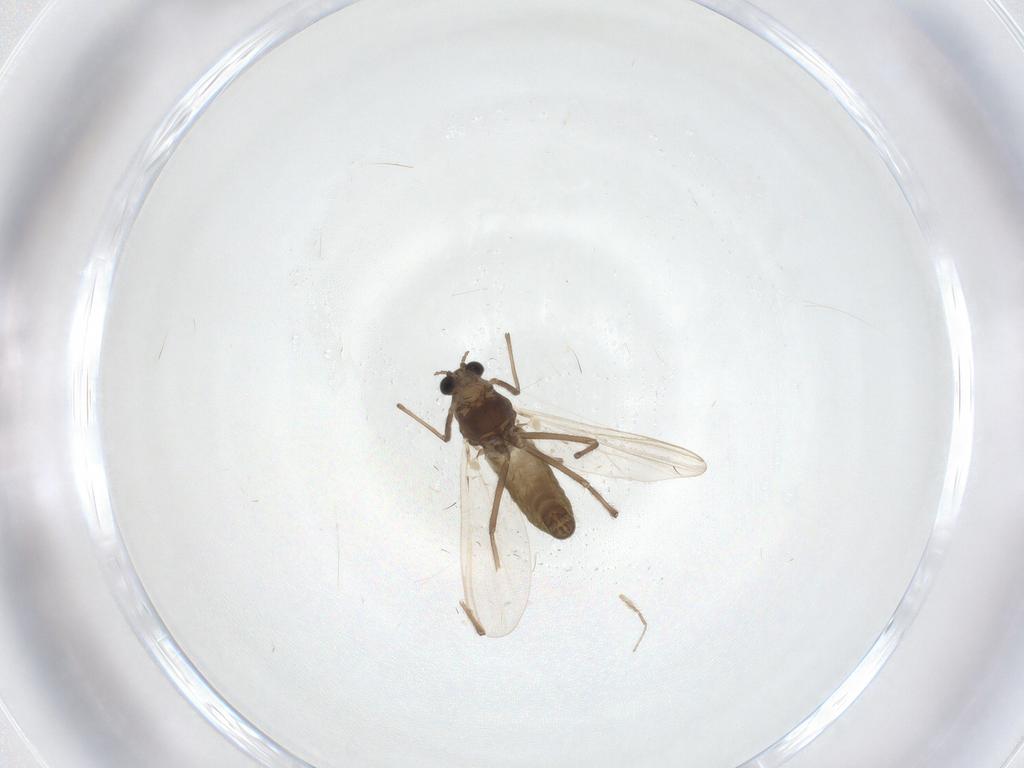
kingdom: Animalia
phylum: Arthropoda
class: Insecta
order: Diptera
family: Chironomidae
